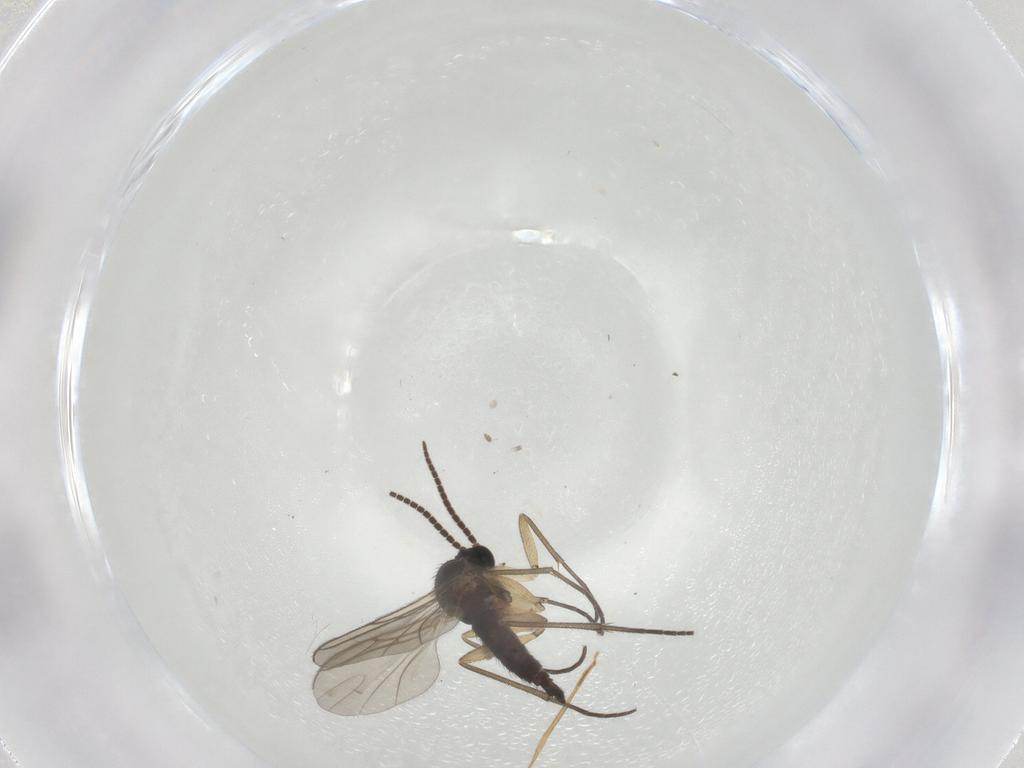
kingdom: Animalia
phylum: Arthropoda
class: Insecta
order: Diptera
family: Sciaridae
